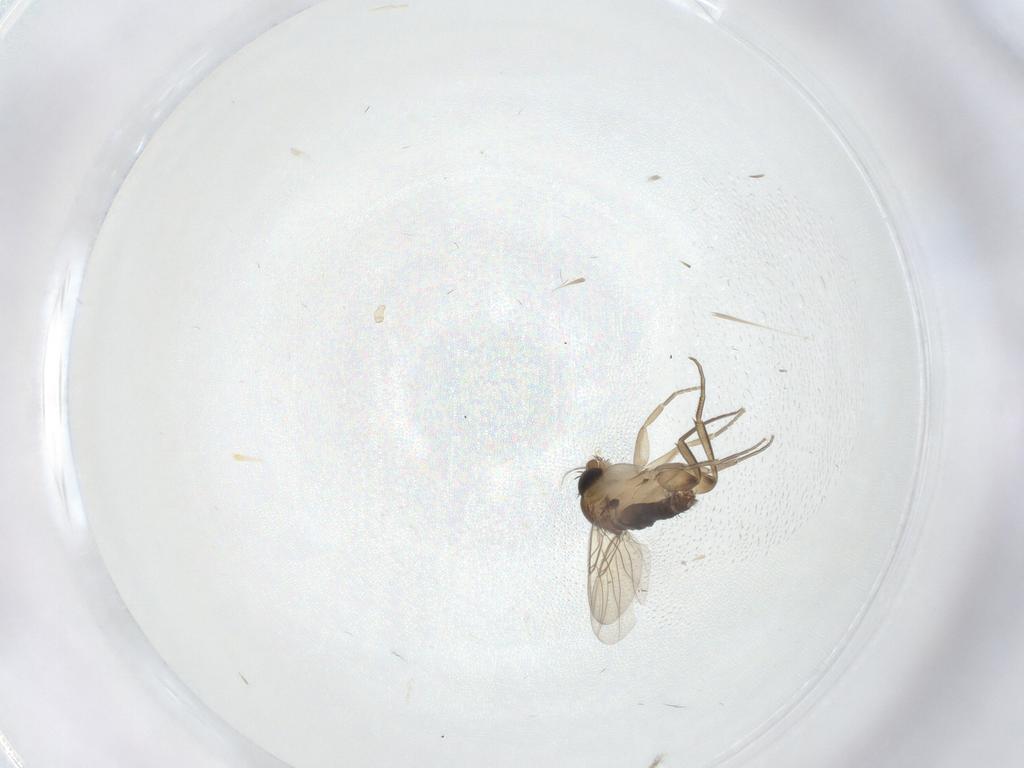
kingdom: Animalia
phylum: Arthropoda
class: Insecta
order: Diptera
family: Phoridae
